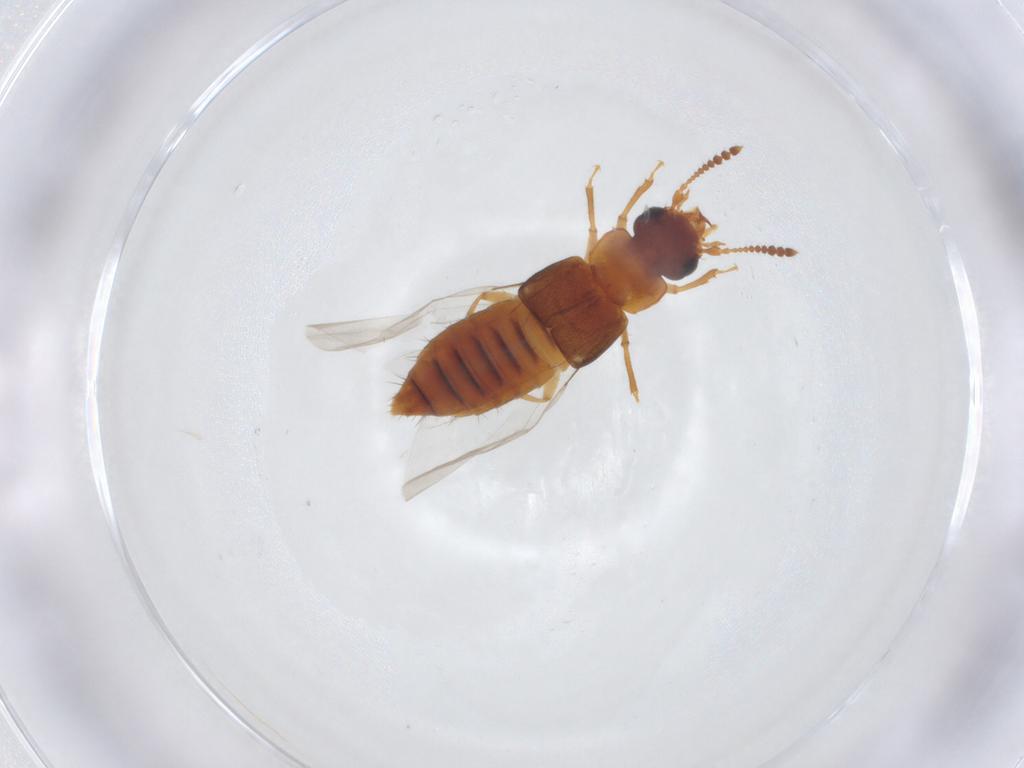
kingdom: Animalia
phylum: Arthropoda
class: Insecta
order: Coleoptera
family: Staphylinidae
